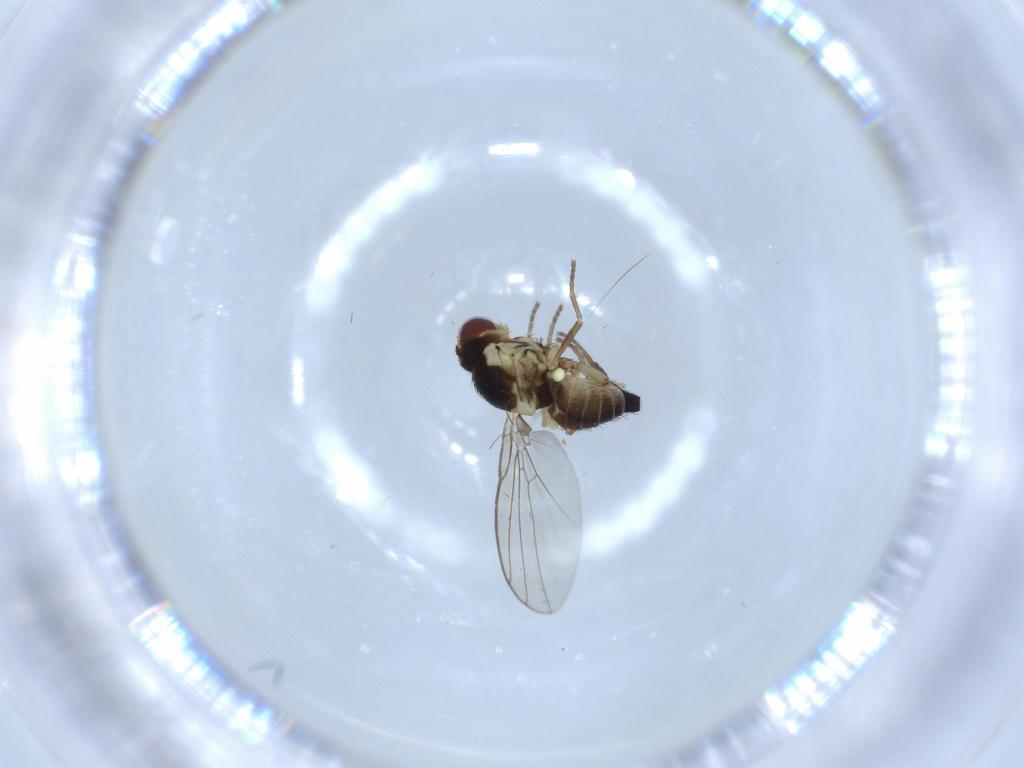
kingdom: Animalia
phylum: Arthropoda
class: Insecta
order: Diptera
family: Agromyzidae
